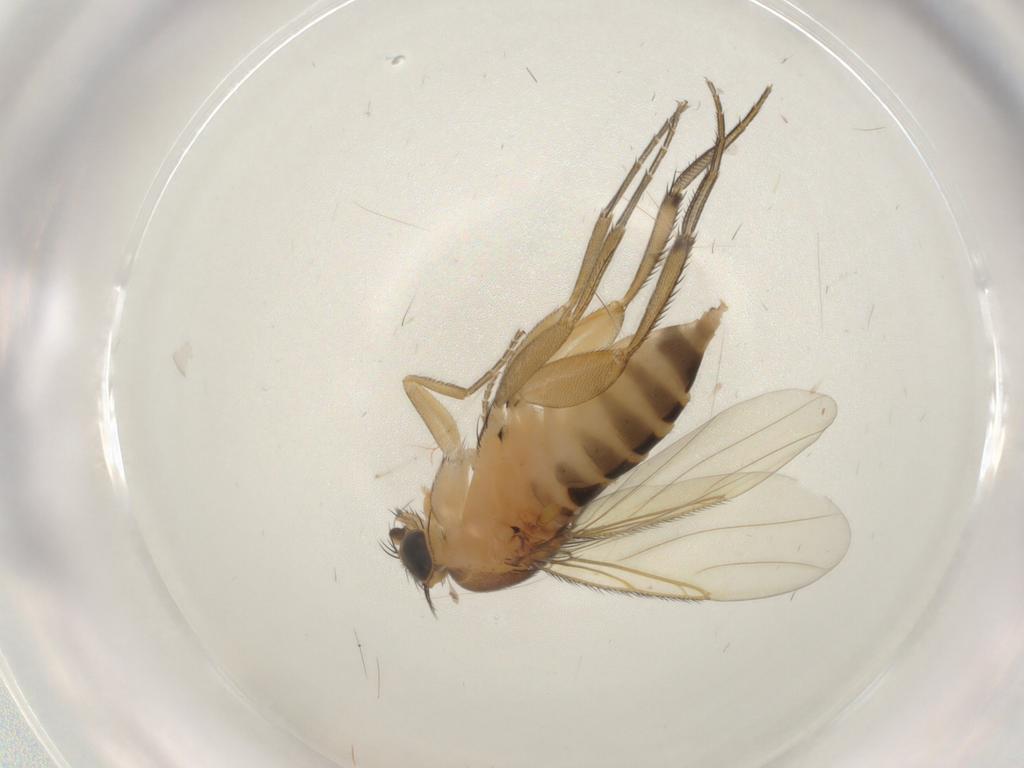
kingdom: Animalia
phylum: Arthropoda
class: Insecta
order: Diptera
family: Phoridae
